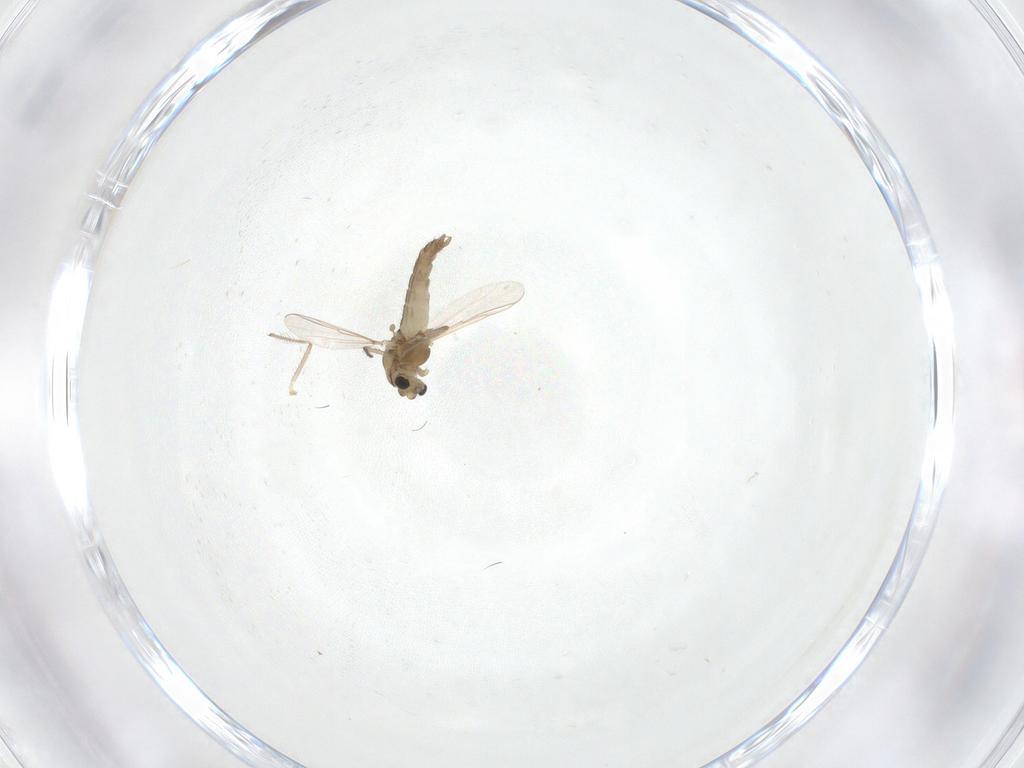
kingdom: Animalia
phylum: Arthropoda
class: Insecta
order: Diptera
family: Chironomidae
